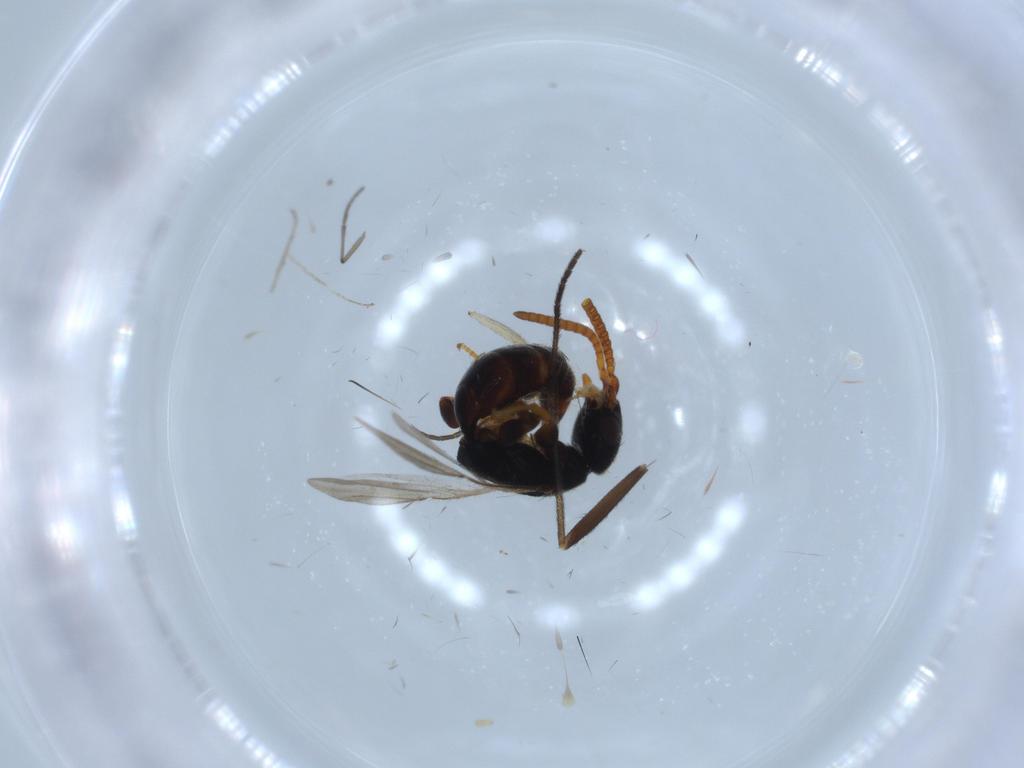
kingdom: Animalia
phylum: Arthropoda
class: Insecta
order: Hymenoptera
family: Bethylidae
